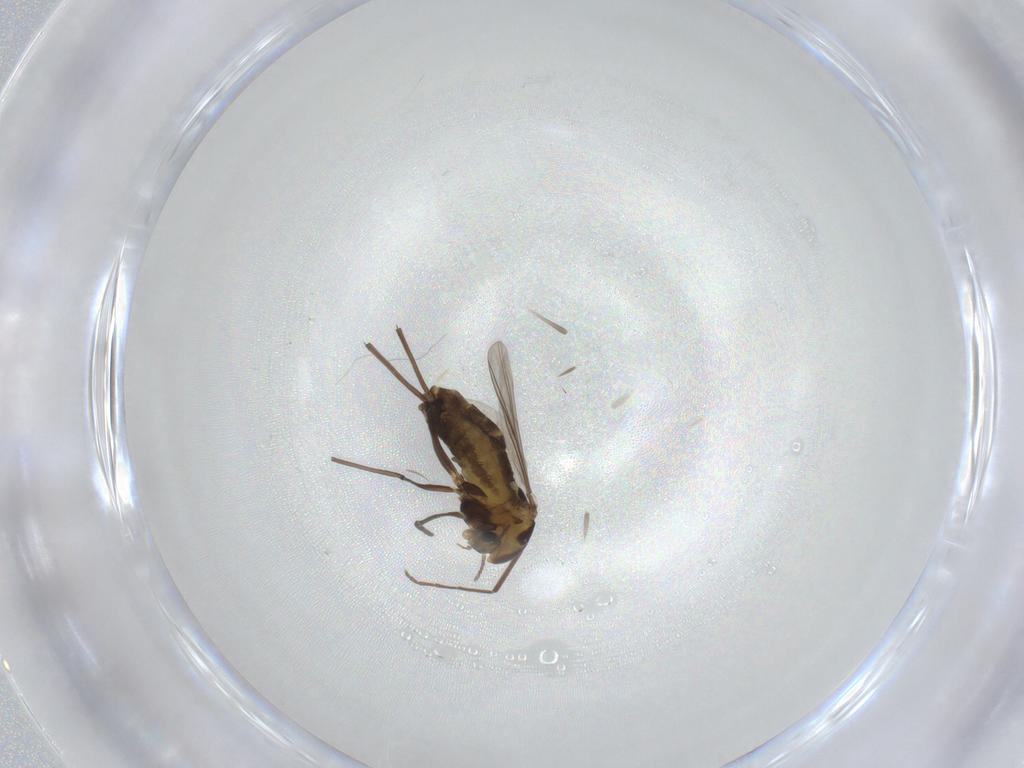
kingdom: Animalia
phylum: Arthropoda
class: Insecta
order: Diptera
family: Chironomidae
